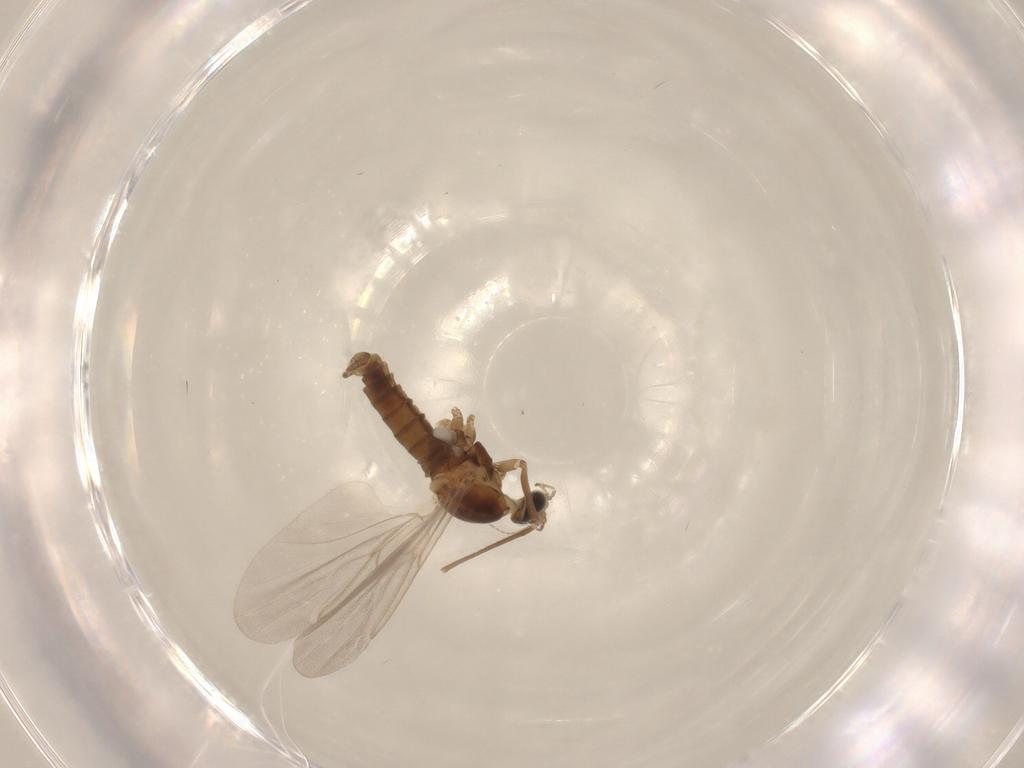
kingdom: Animalia
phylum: Arthropoda
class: Insecta
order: Diptera
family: Cecidomyiidae
